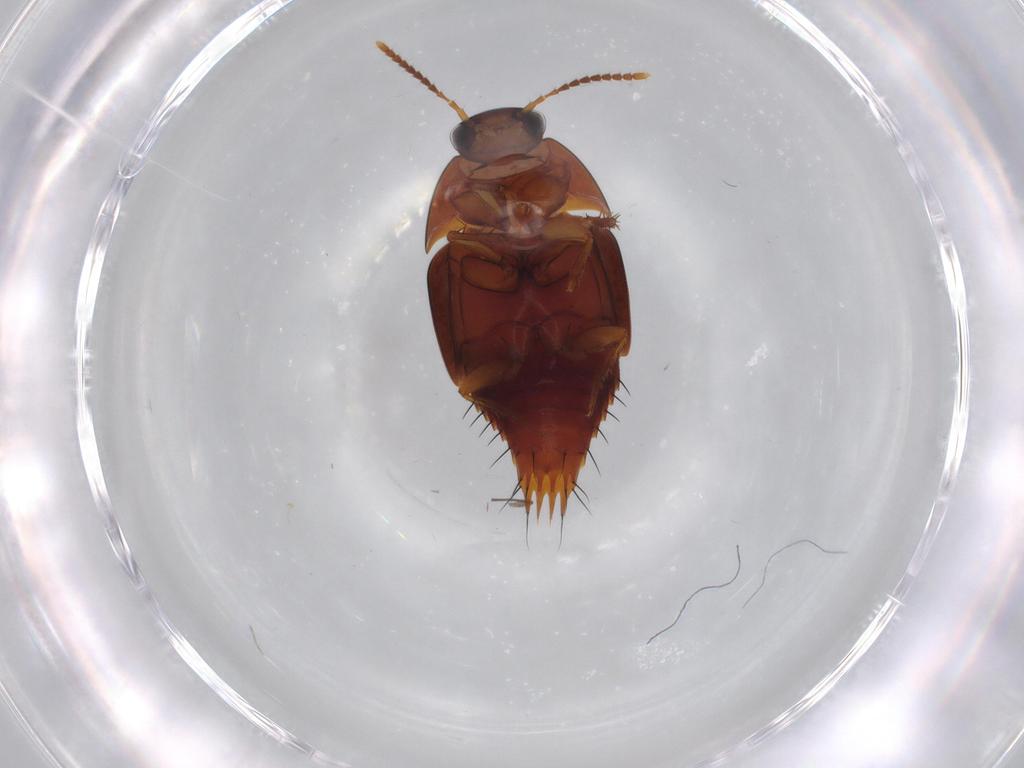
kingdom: Animalia
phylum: Arthropoda
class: Insecta
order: Coleoptera
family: Staphylinidae
